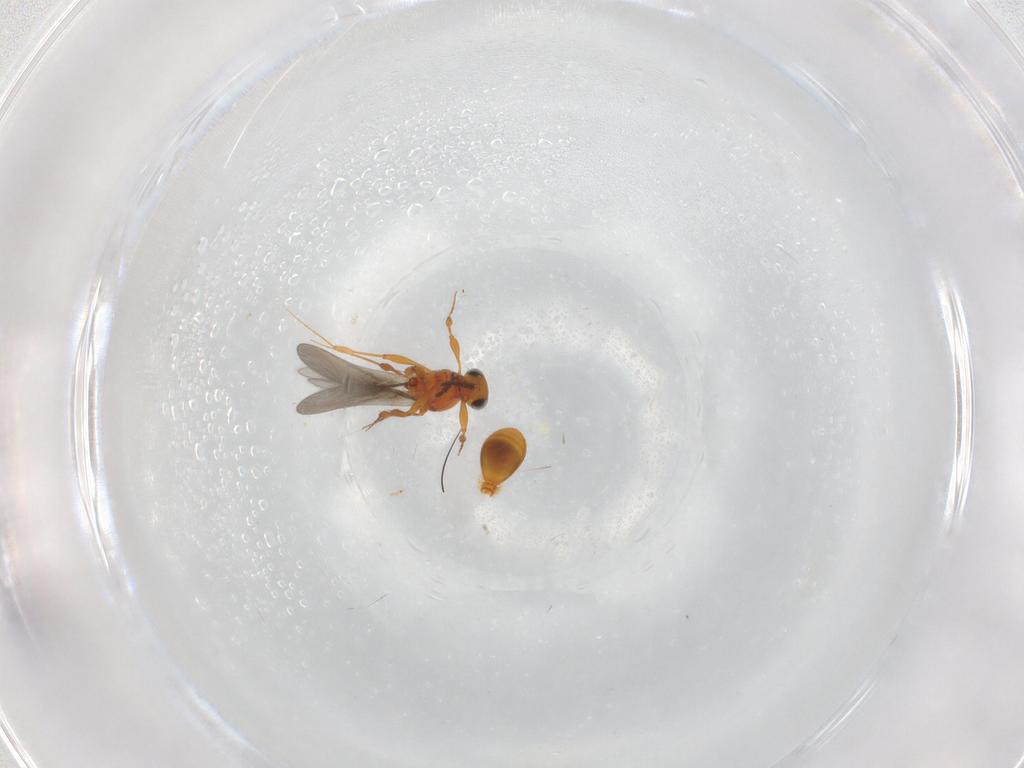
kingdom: Animalia
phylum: Arthropoda
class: Insecta
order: Hymenoptera
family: Platygastridae
